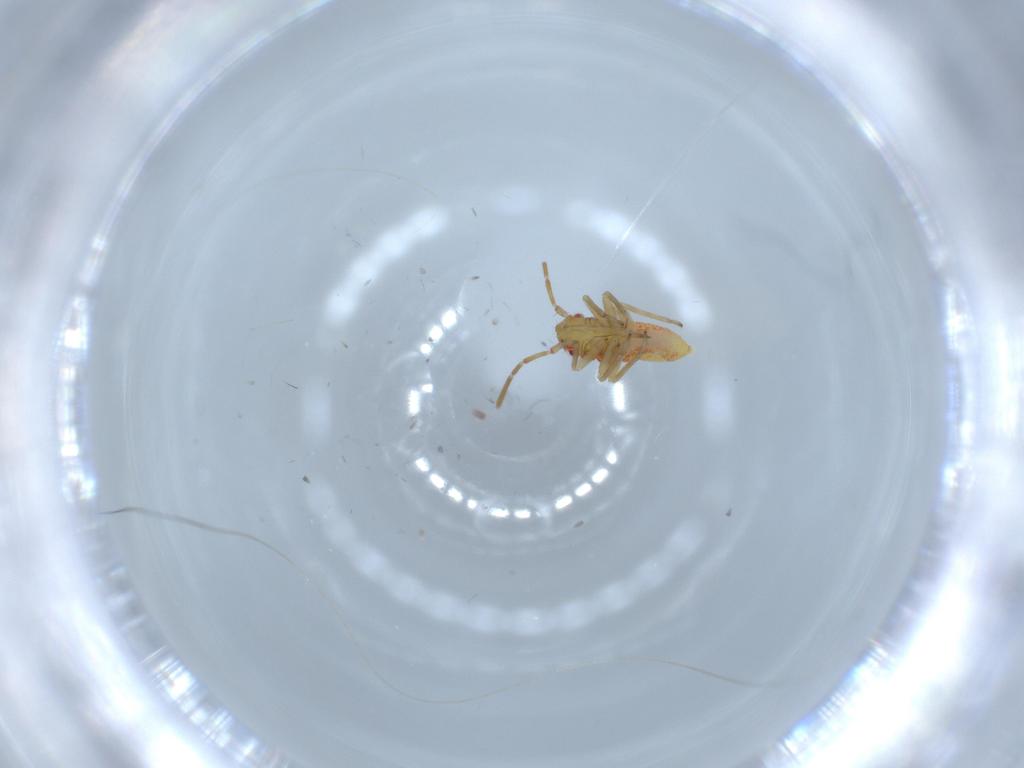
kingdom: Animalia
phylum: Arthropoda
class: Insecta
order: Hemiptera
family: Miridae
